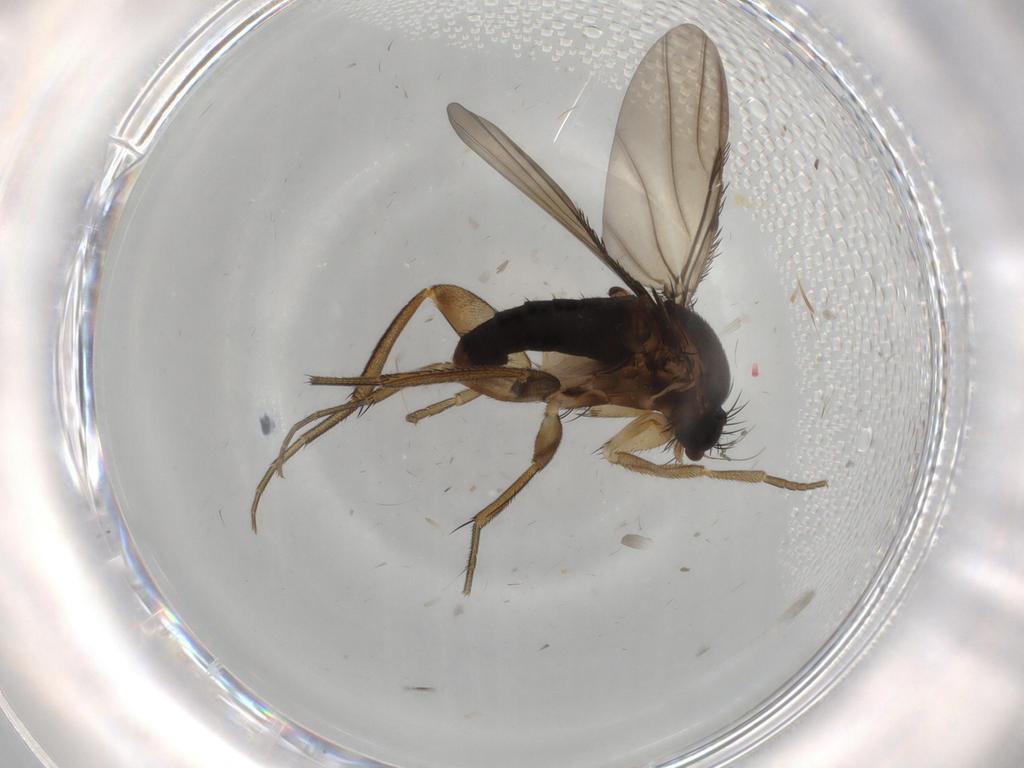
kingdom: Animalia
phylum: Arthropoda
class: Insecta
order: Diptera
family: Phoridae
